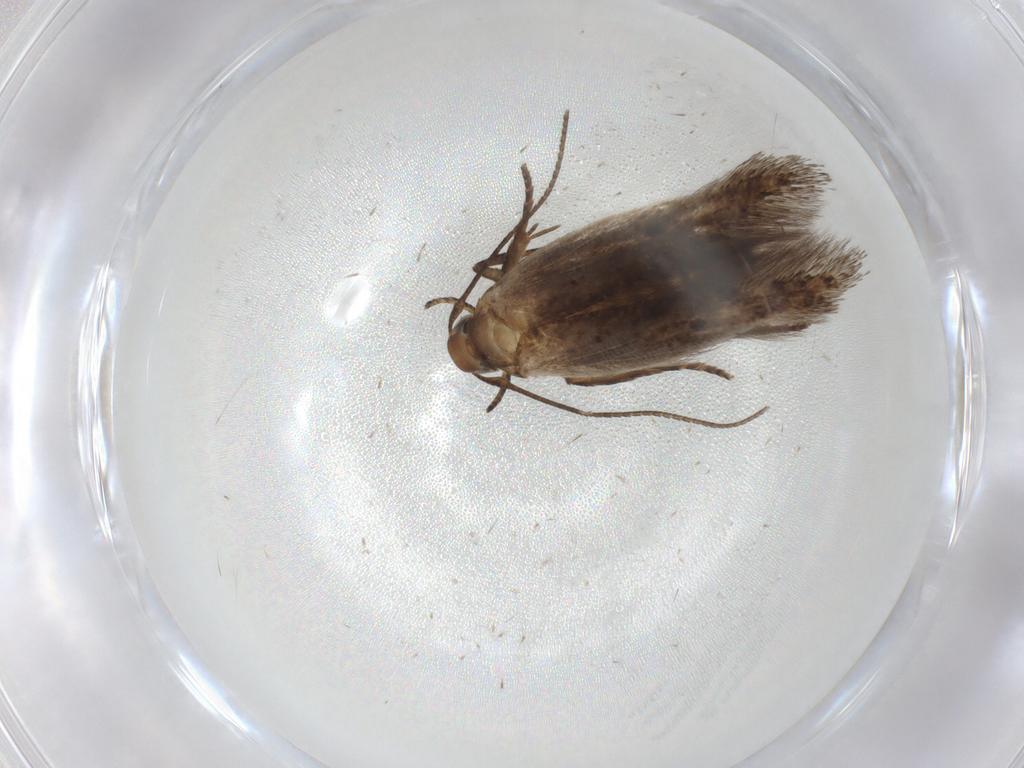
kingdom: Animalia
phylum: Arthropoda
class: Insecta
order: Lepidoptera
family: Cosmopterigidae
